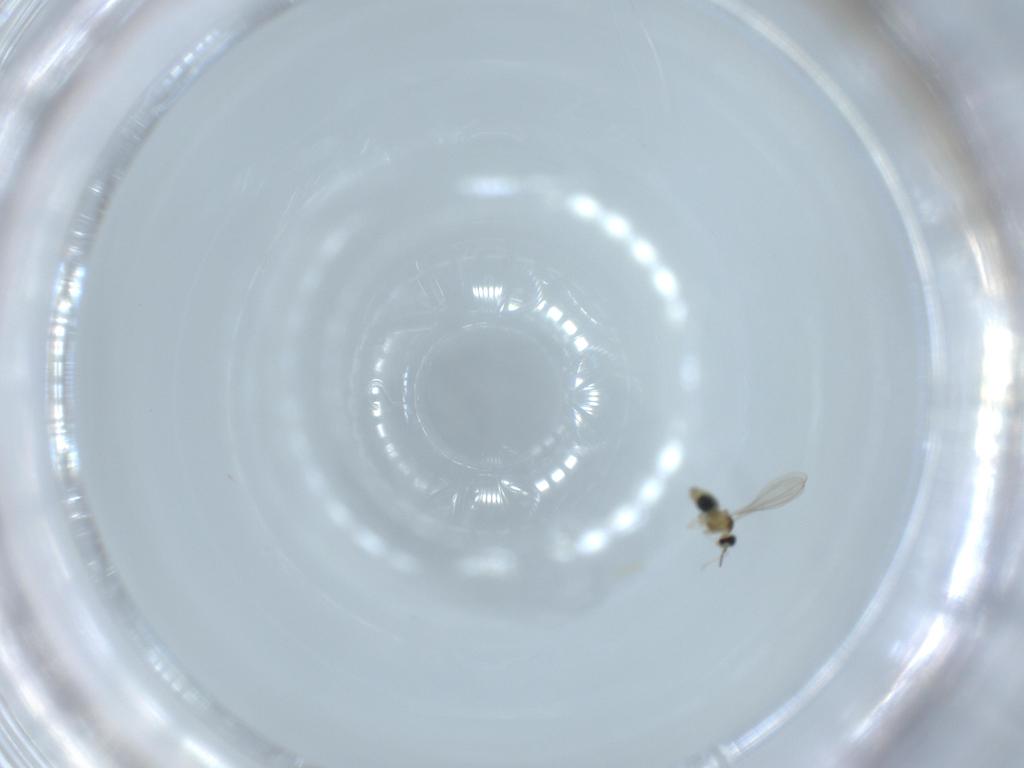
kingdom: Animalia
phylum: Arthropoda
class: Insecta
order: Diptera
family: Cecidomyiidae
